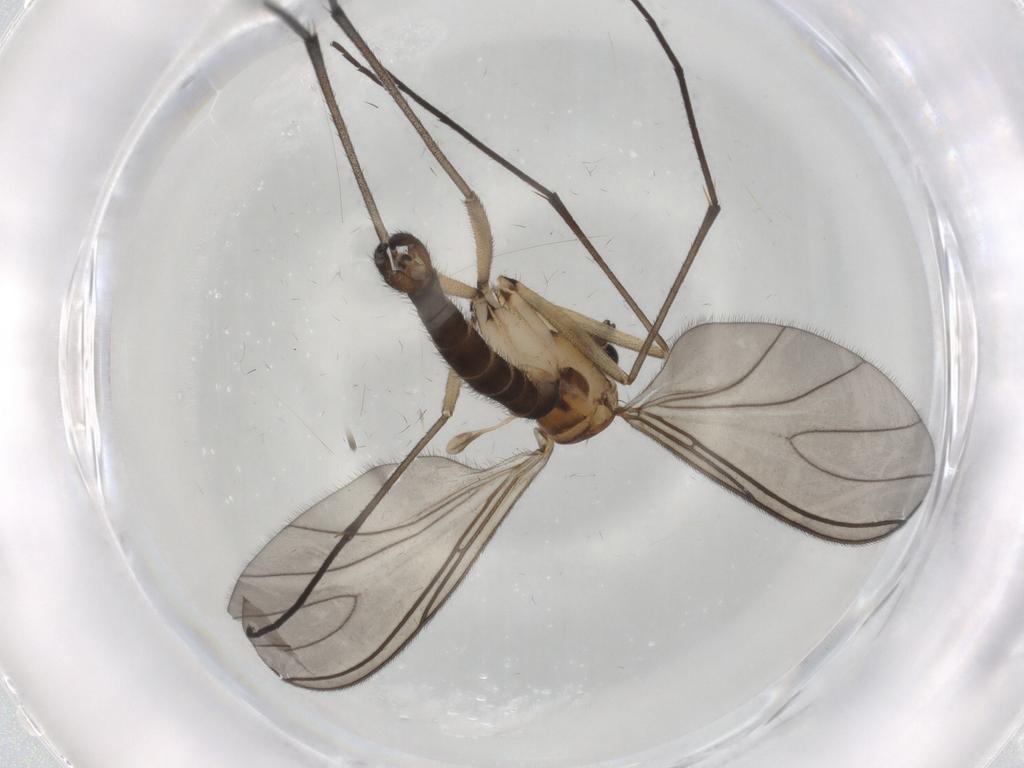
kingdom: Animalia
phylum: Arthropoda
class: Insecta
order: Diptera
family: Sciaridae
